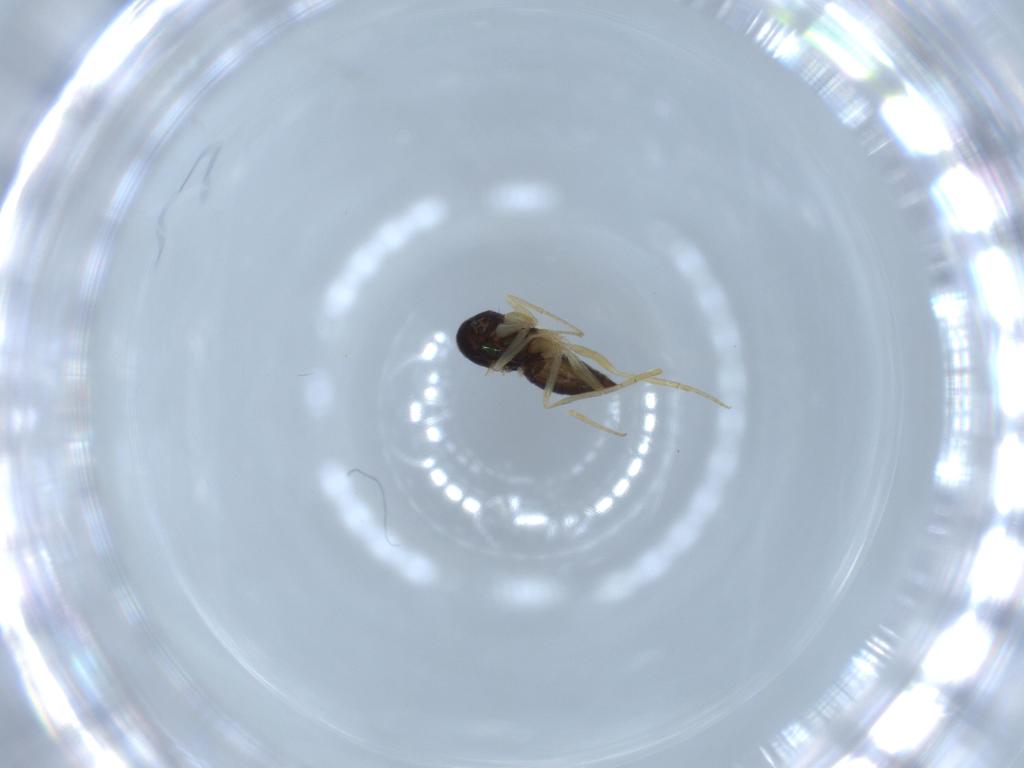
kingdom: Animalia
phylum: Arthropoda
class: Insecta
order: Diptera
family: Dolichopodidae
